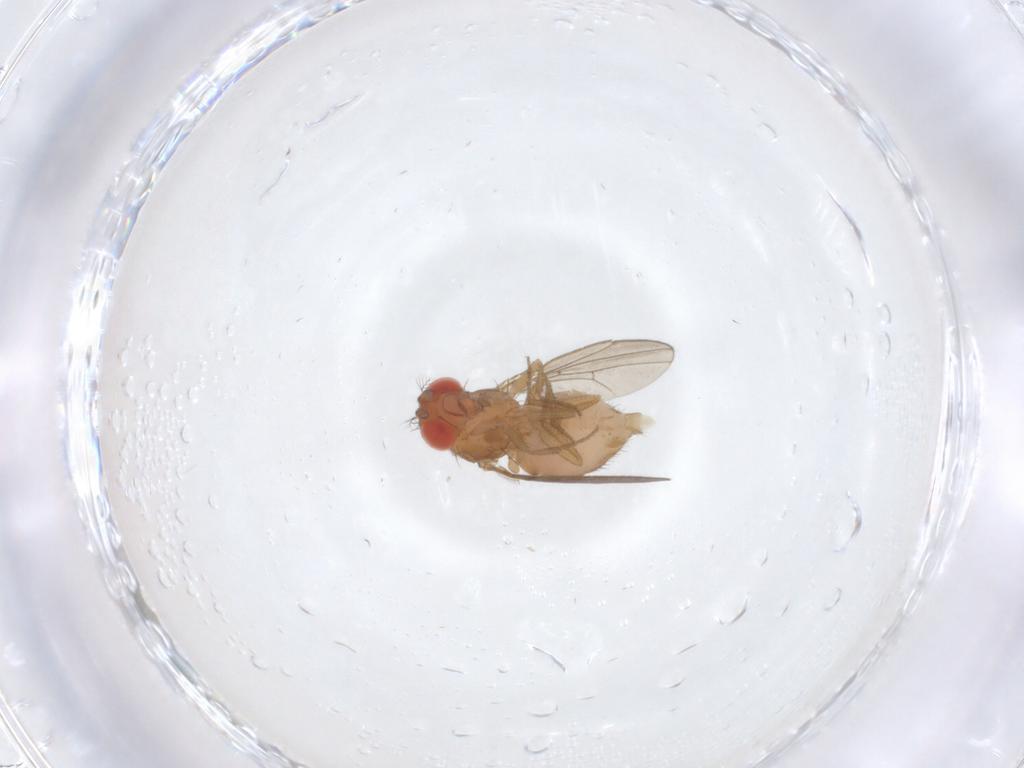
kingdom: Animalia
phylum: Arthropoda
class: Insecta
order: Diptera
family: Drosophilidae
